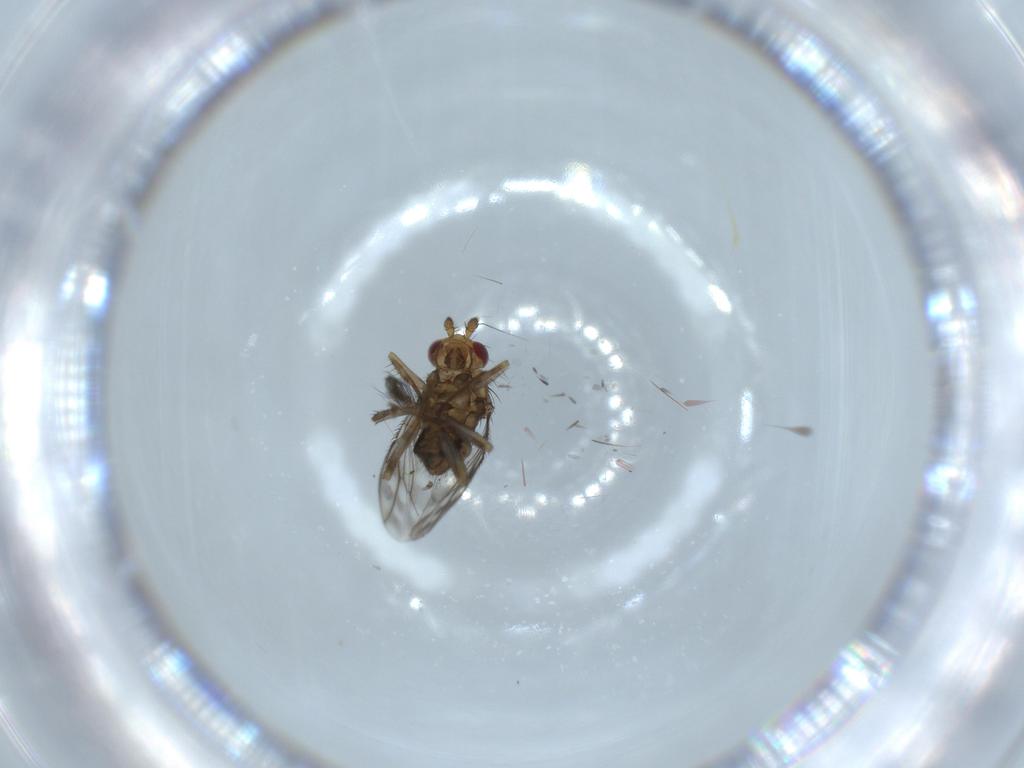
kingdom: Animalia
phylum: Arthropoda
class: Insecta
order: Diptera
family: Sphaeroceridae
